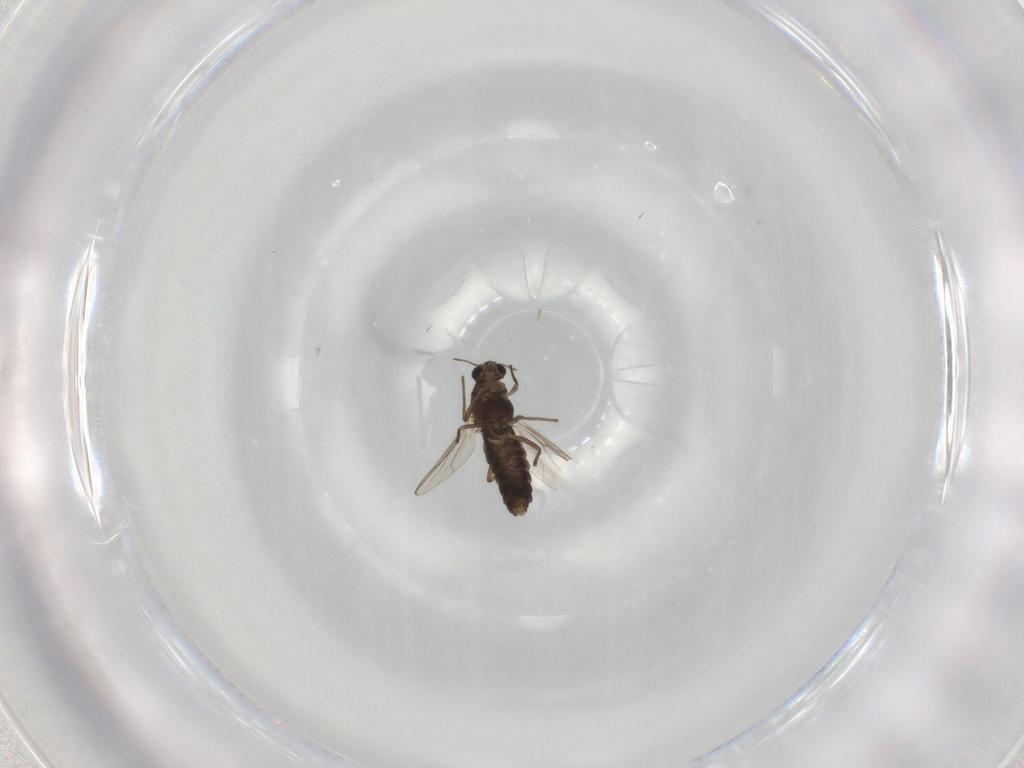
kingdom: Animalia
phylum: Arthropoda
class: Insecta
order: Diptera
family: Chironomidae
